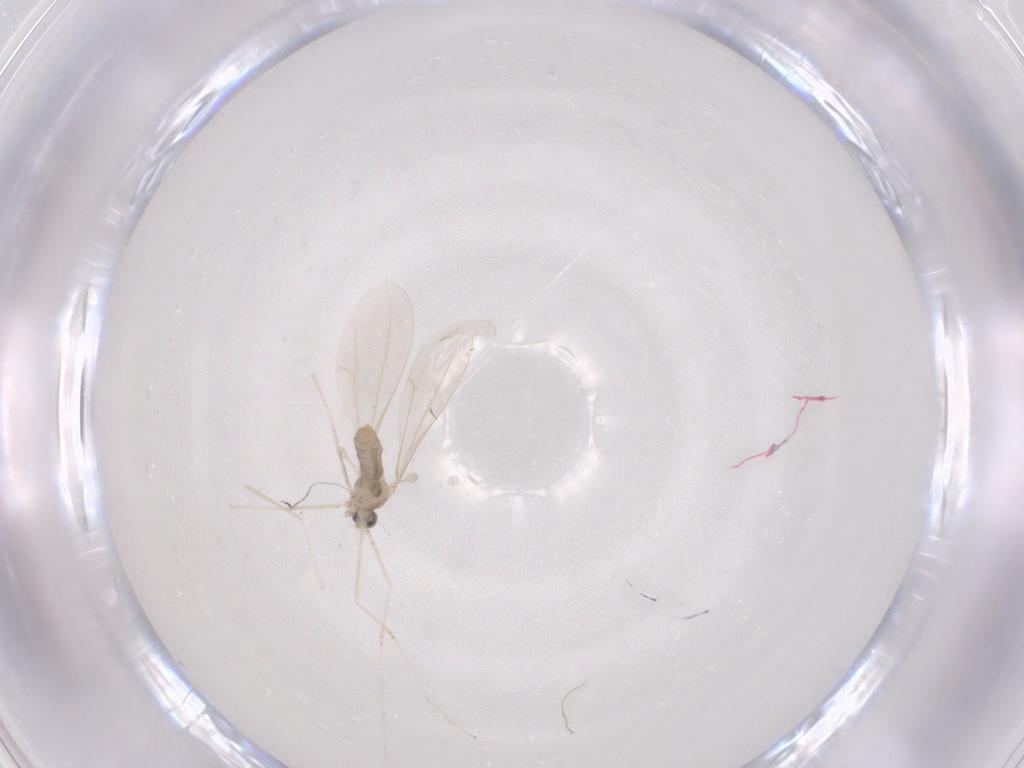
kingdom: Animalia
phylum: Arthropoda
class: Insecta
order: Diptera
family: Cecidomyiidae
